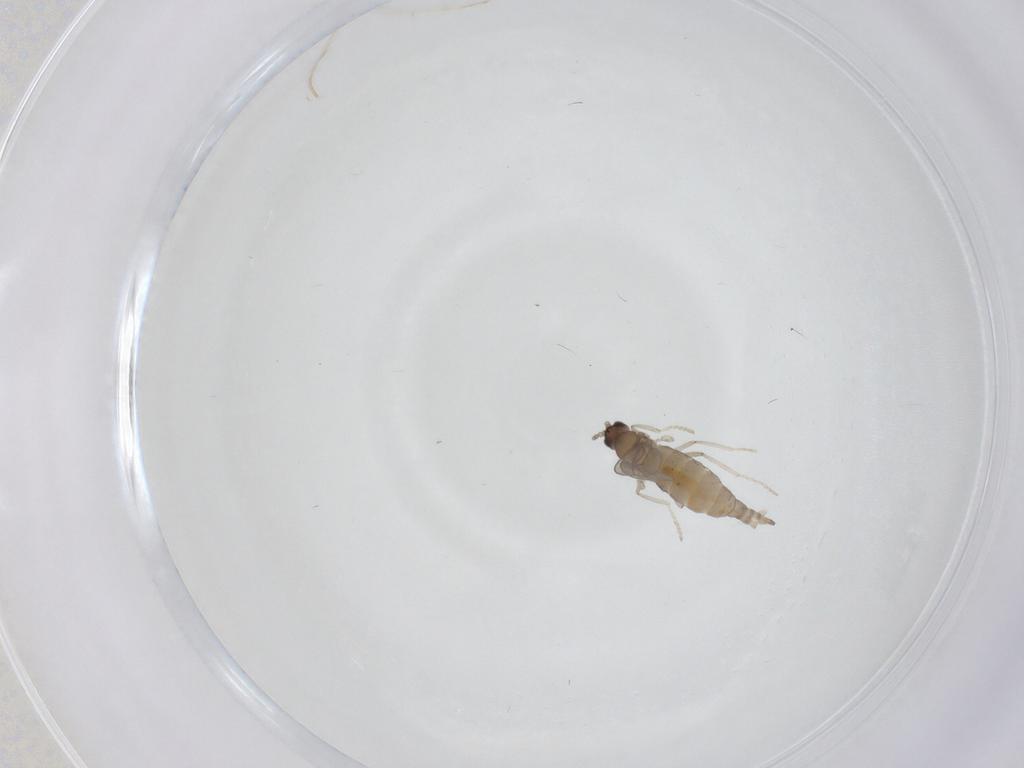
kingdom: Animalia
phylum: Arthropoda
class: Insecta
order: Diptera
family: Cecidomyiidae
